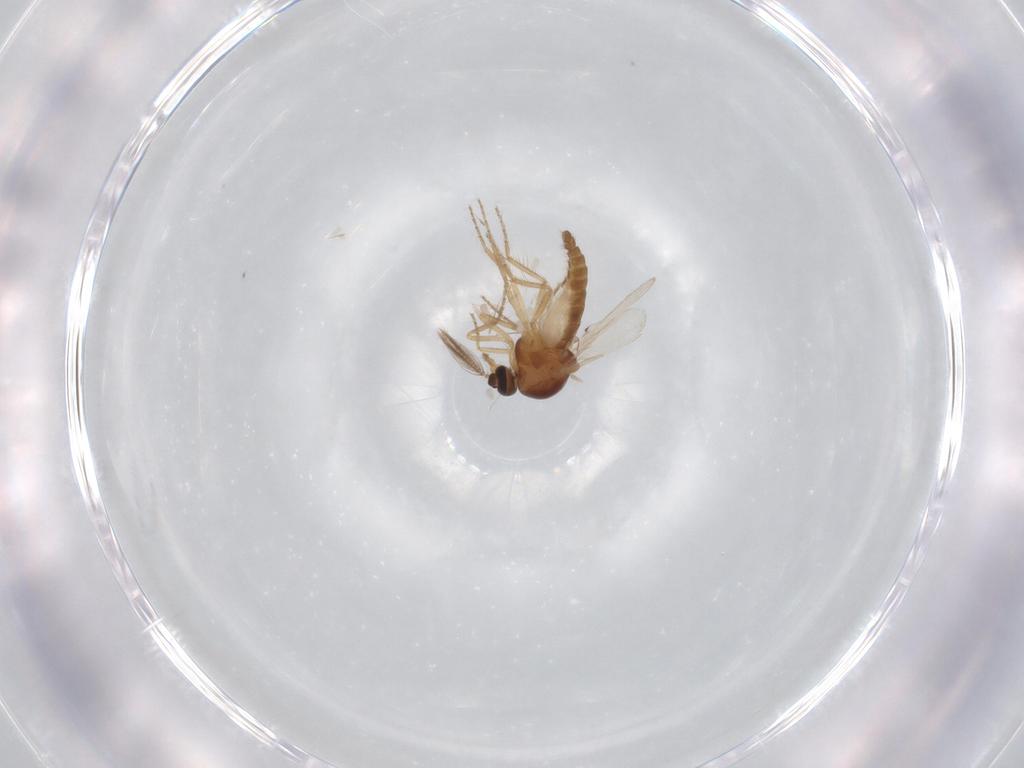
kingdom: Animalia
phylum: Arthropoda
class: Insecta
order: Diptera
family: Ceratopogonidae
